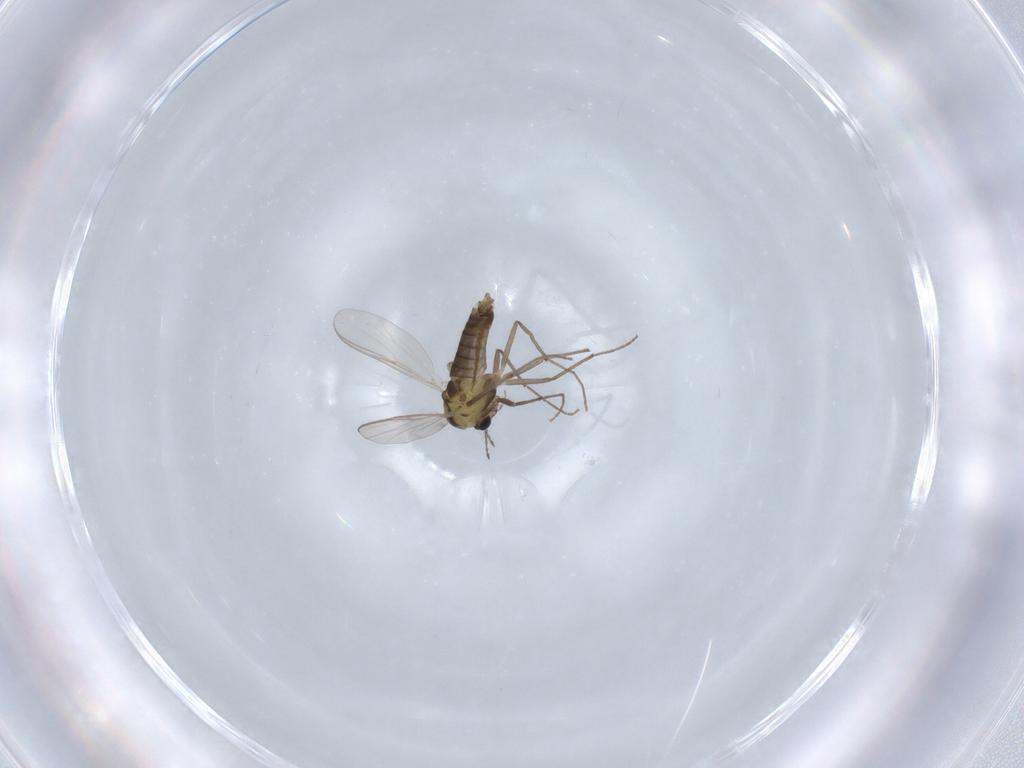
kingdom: Animalia
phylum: Arthropoda
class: Insecta
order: Diptera
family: Chironomidae
